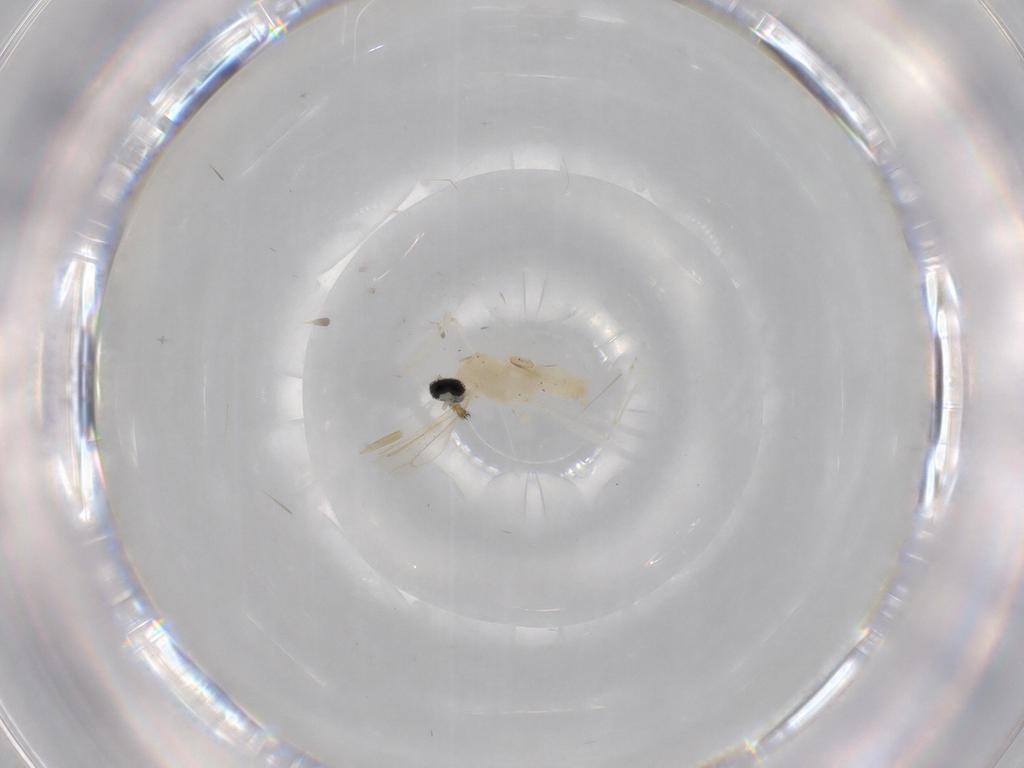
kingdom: Animalia
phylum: Arthropoda
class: Insecta
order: Diptera
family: Cecidomyiidae
